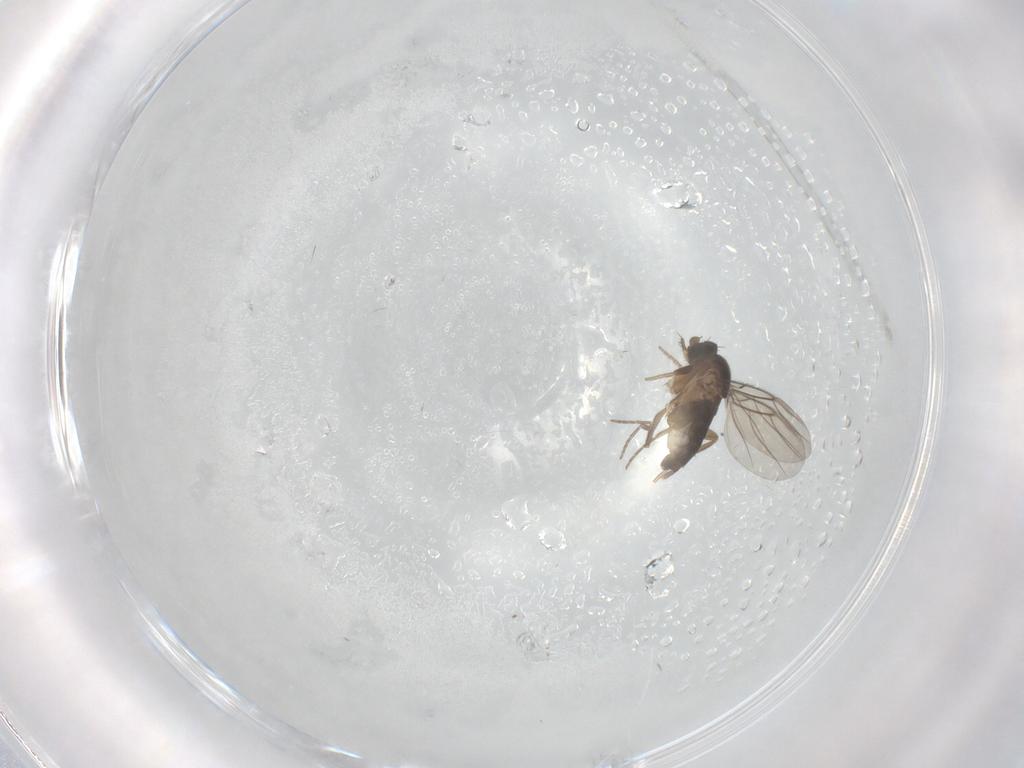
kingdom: Animalia
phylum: Arthropoda
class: Insecta
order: Diptera
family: Phoridae
